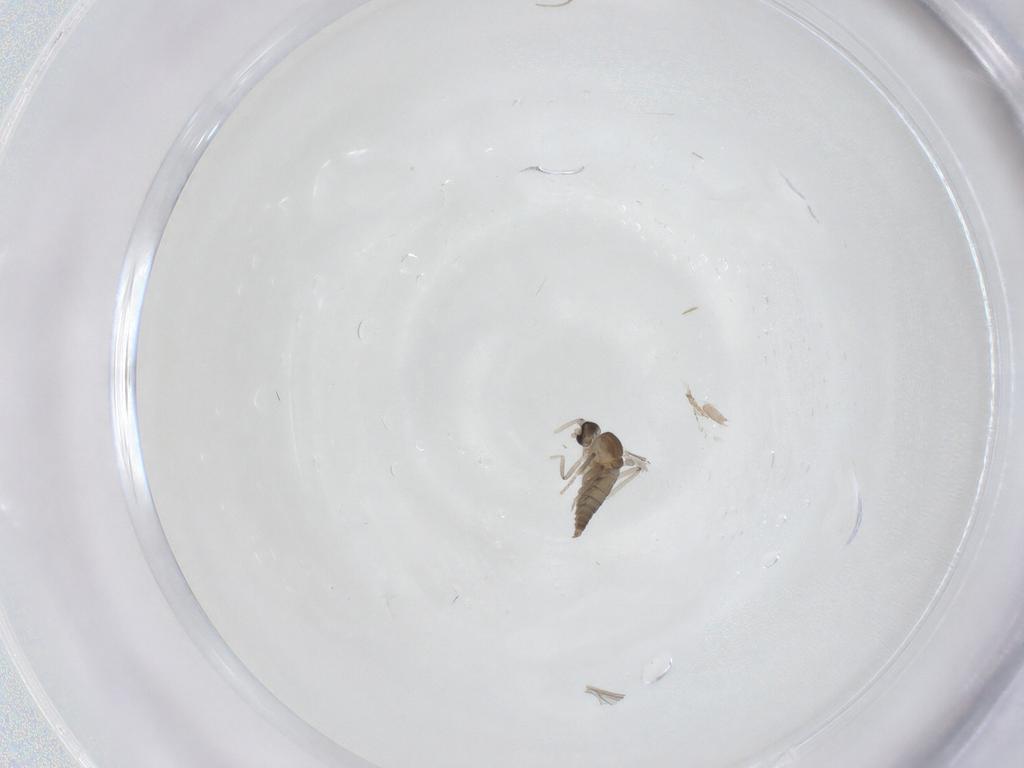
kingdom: Animalia
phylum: Arthropoda
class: Insecta
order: Diptera
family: Cecidomyiidae
